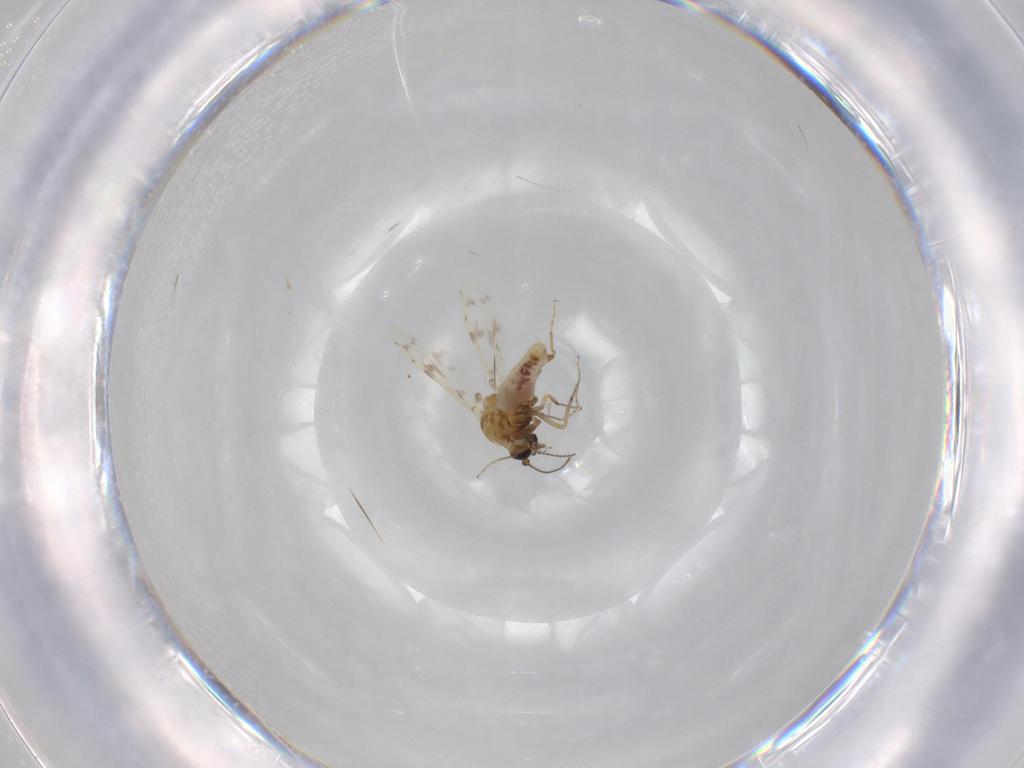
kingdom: Animalia
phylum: Arthropoda
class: Insecta
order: Diptera
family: Ceratopogonidae
